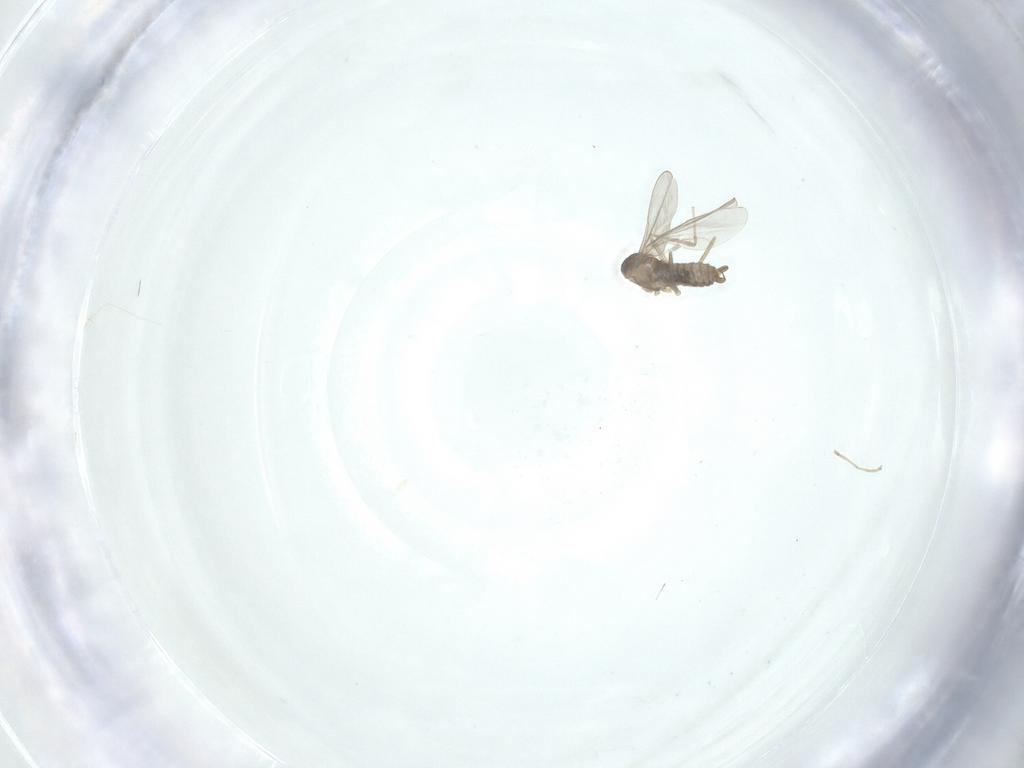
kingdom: Animalia
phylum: Arthropoda
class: Insecta
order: Diptera
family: Cecidomyiidae
